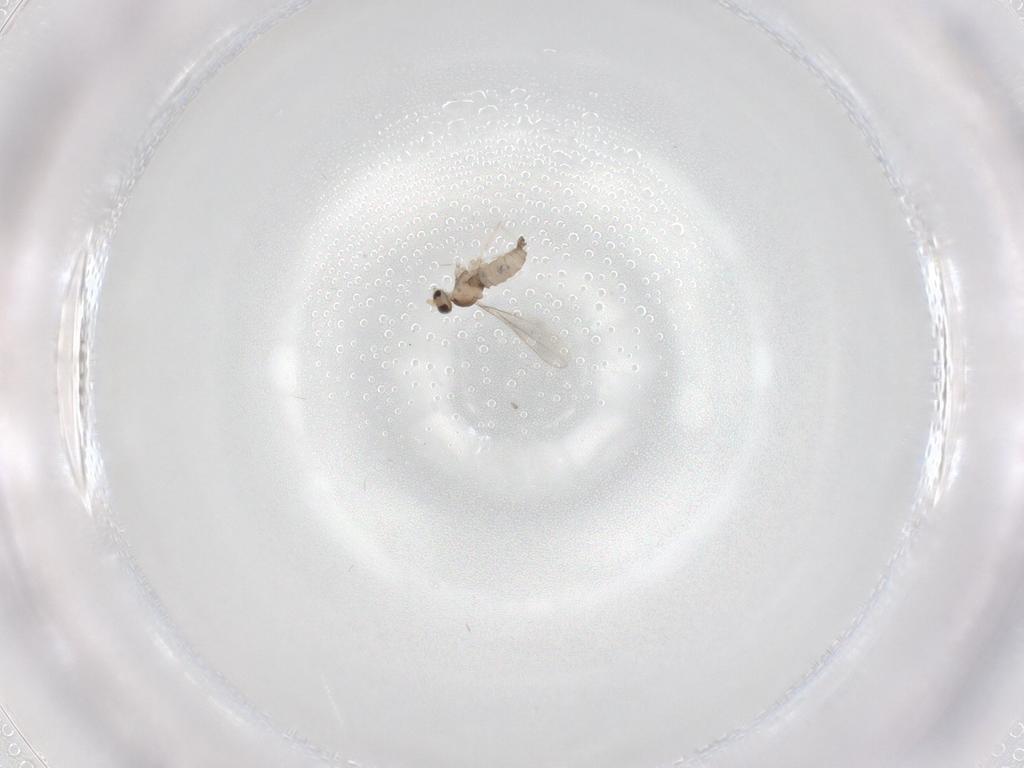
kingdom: Animalia
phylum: Arthropoda
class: Insecta
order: Diptera
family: Cecidomyiidae
